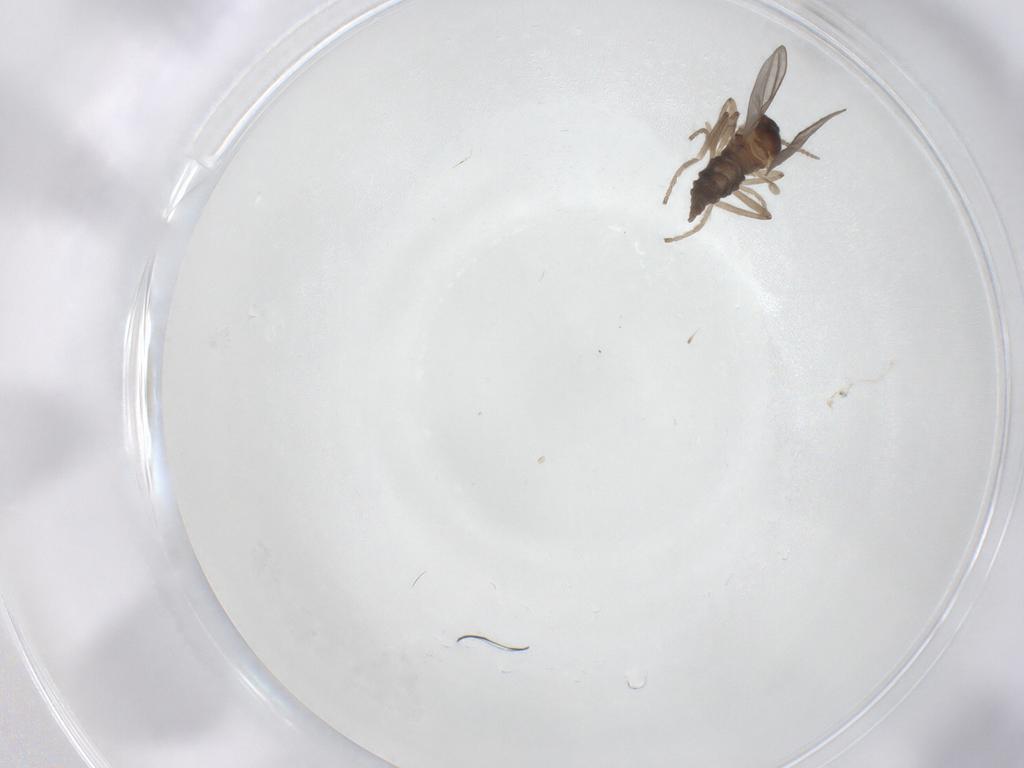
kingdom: Animalia
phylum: Arthropoda
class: Insecta
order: Diptera
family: Cecidomyiidae
